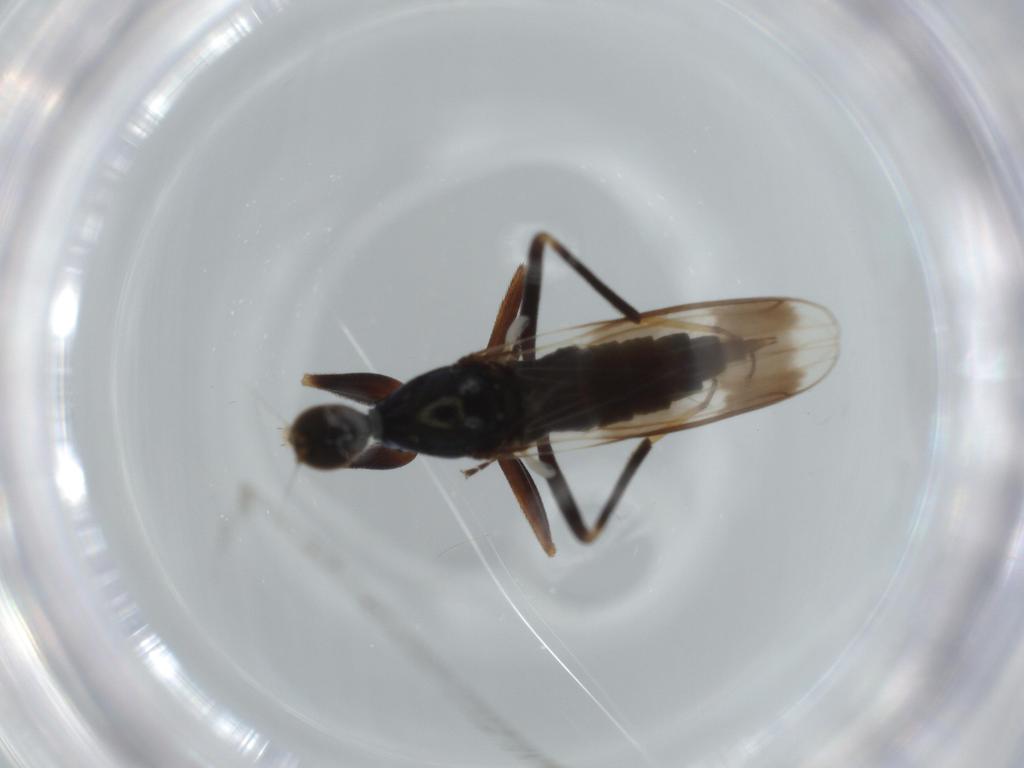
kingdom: Animalia
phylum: Arthropoda
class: Insecta
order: Diptera
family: Hybotidae
